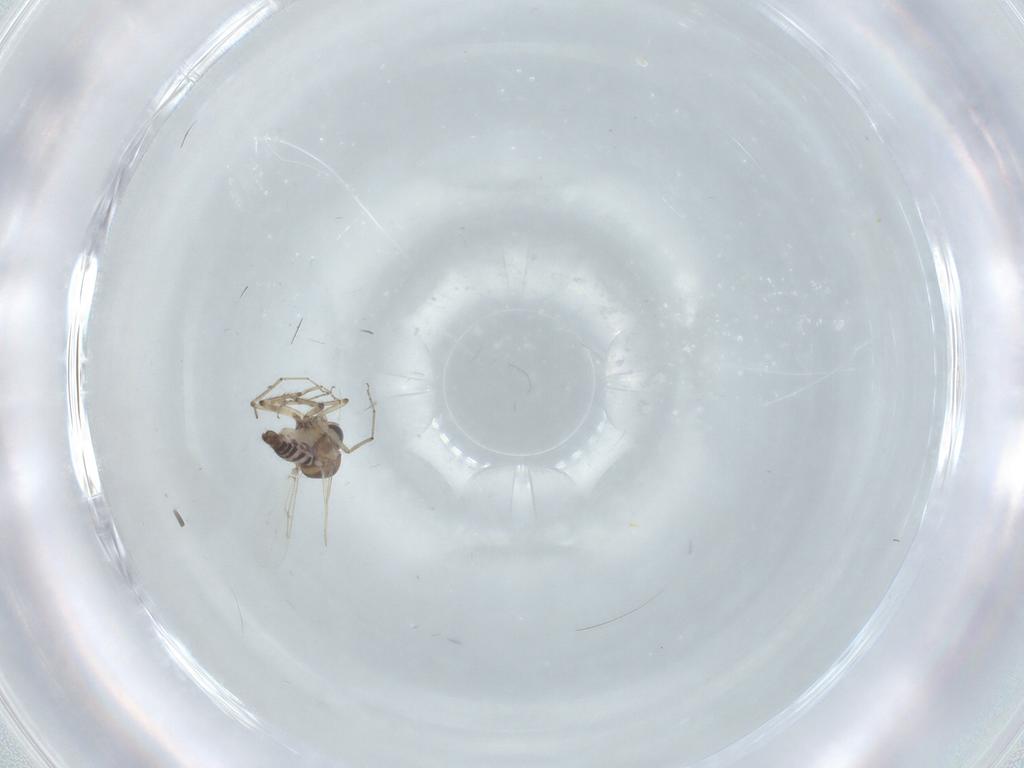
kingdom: Animalia
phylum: Arthropoda
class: Insecta
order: Diptera
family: Ceratopogonidae
